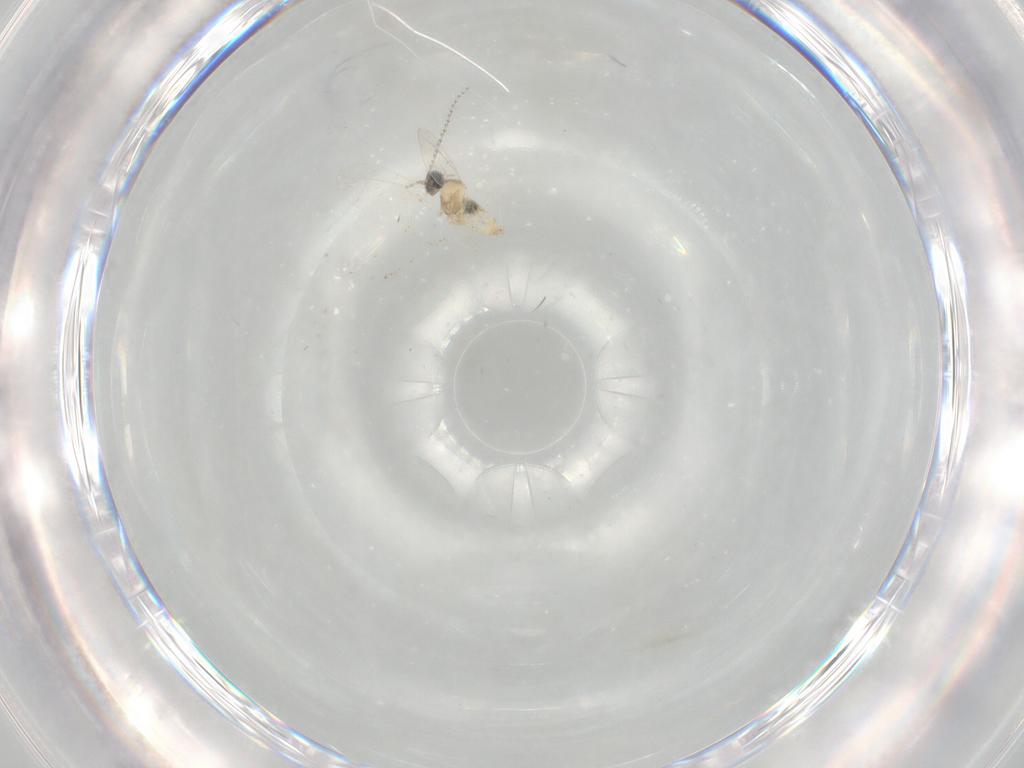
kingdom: Animalia
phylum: Arthropoda
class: Insecta
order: Diptera
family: Cecidomyiidae
